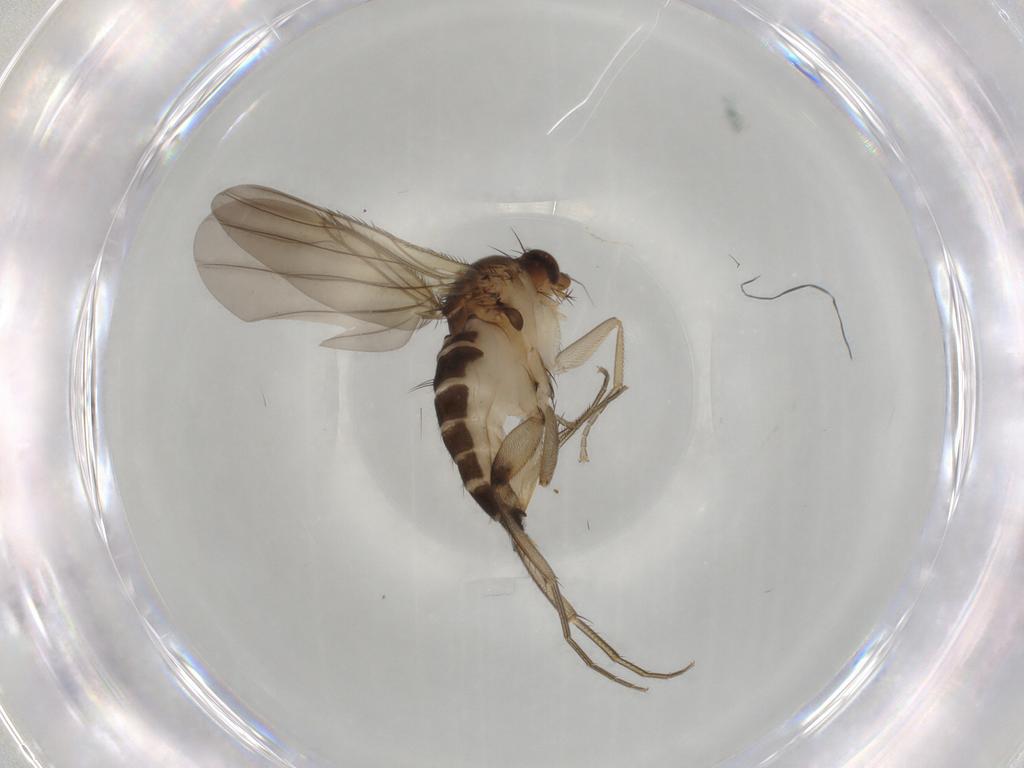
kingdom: Animalia
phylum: Arthropoda
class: Insecta
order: Diptera
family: Phoridae
